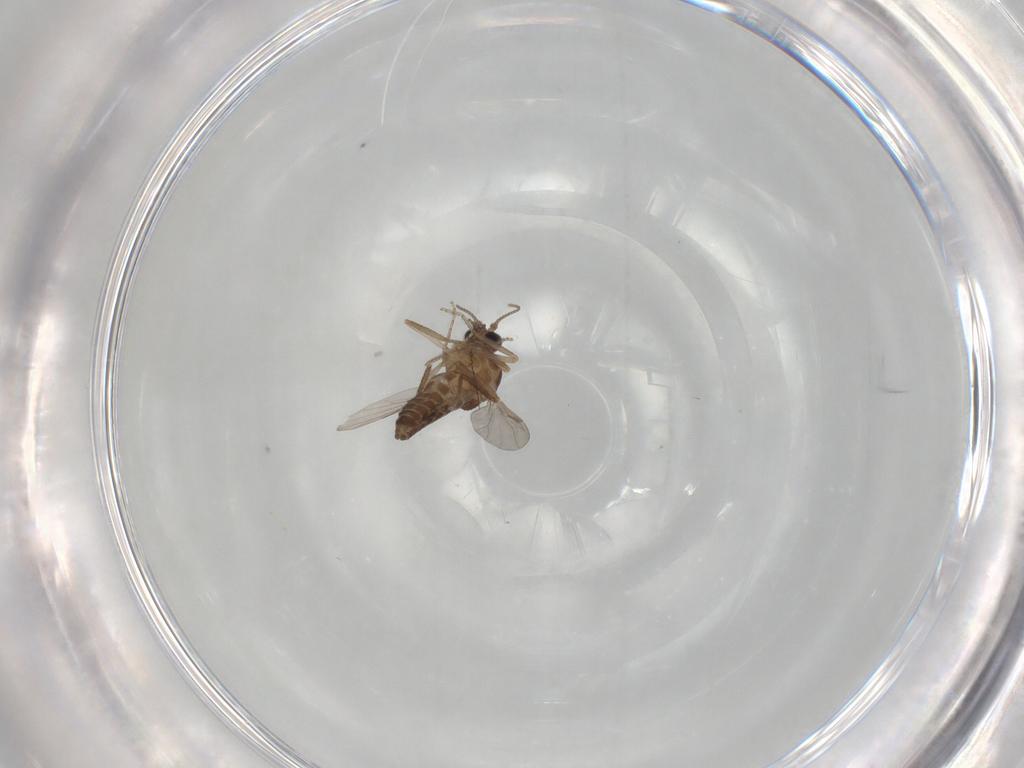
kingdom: Animalia
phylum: Arthropoda
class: Insecta
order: Diptera
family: Ceratopogonidae
